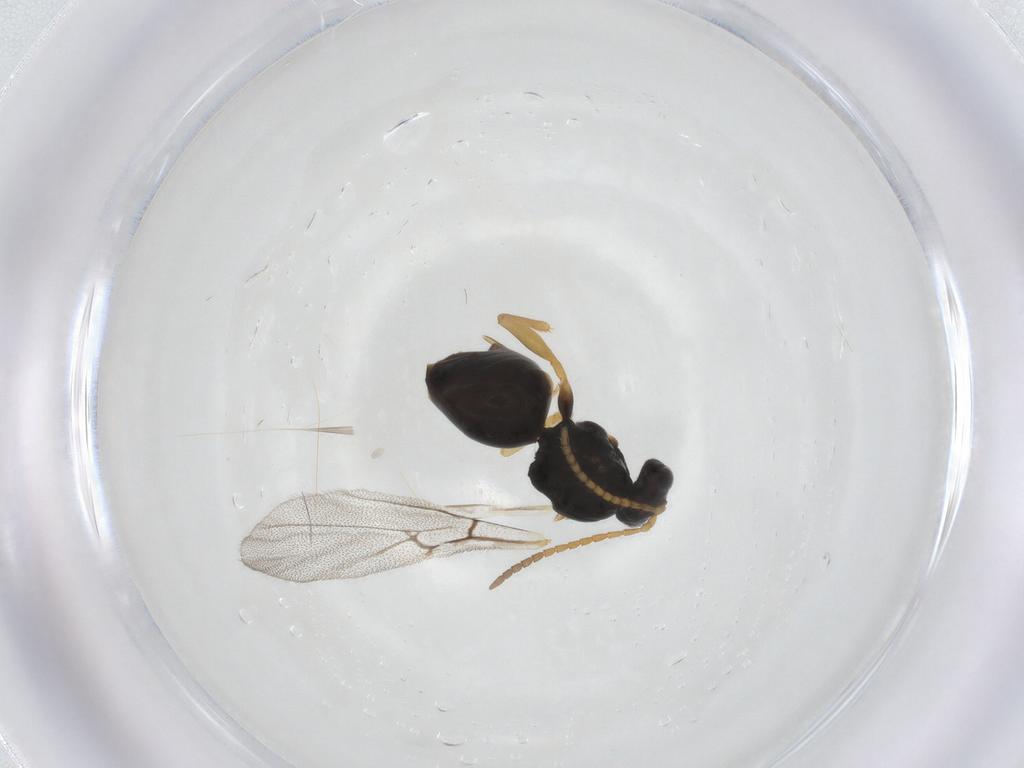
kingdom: Animalia
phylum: Arthropoda
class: Insecta
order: Hymenoptera
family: Cynipidae
